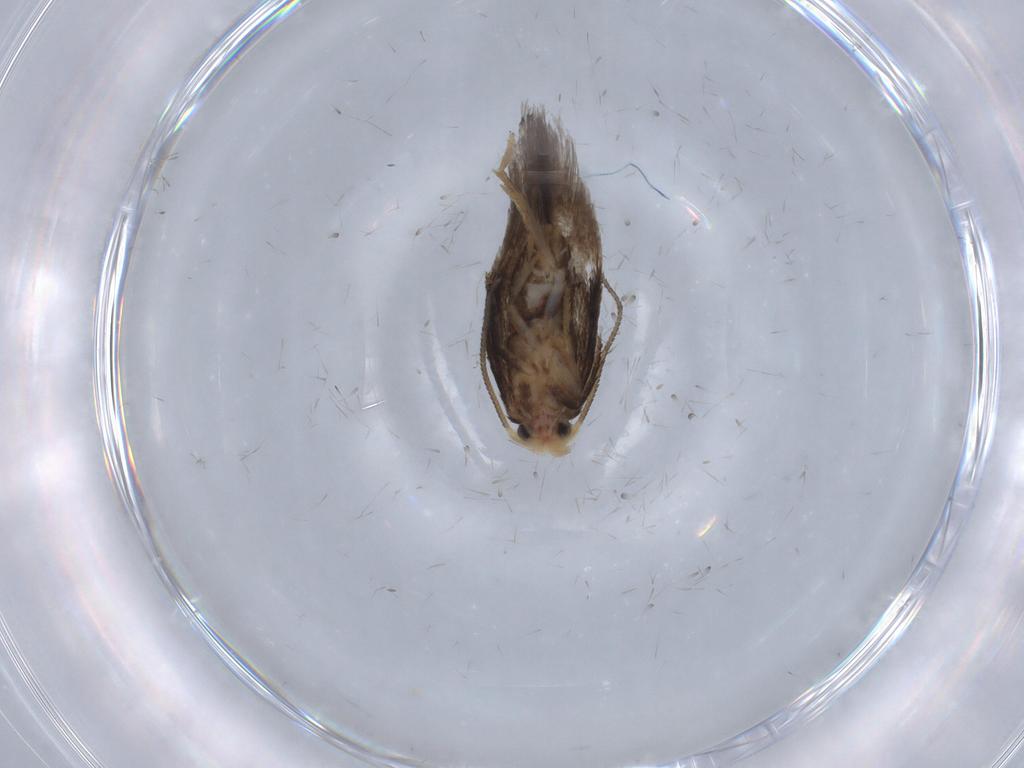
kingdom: Animalia
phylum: Arthropoda
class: Insecta
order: Lepidoptera
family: Nepticulidae
